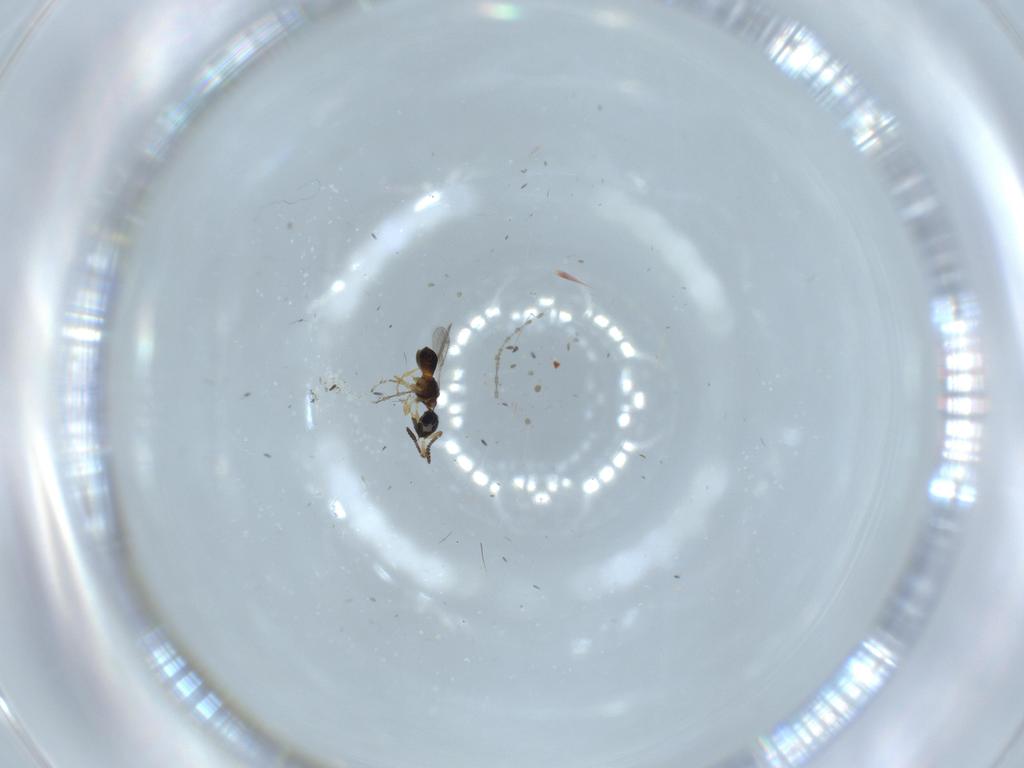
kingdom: Animalia
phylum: Arthropoda
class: Insecta
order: Hymenoptera
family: Scelionidae
